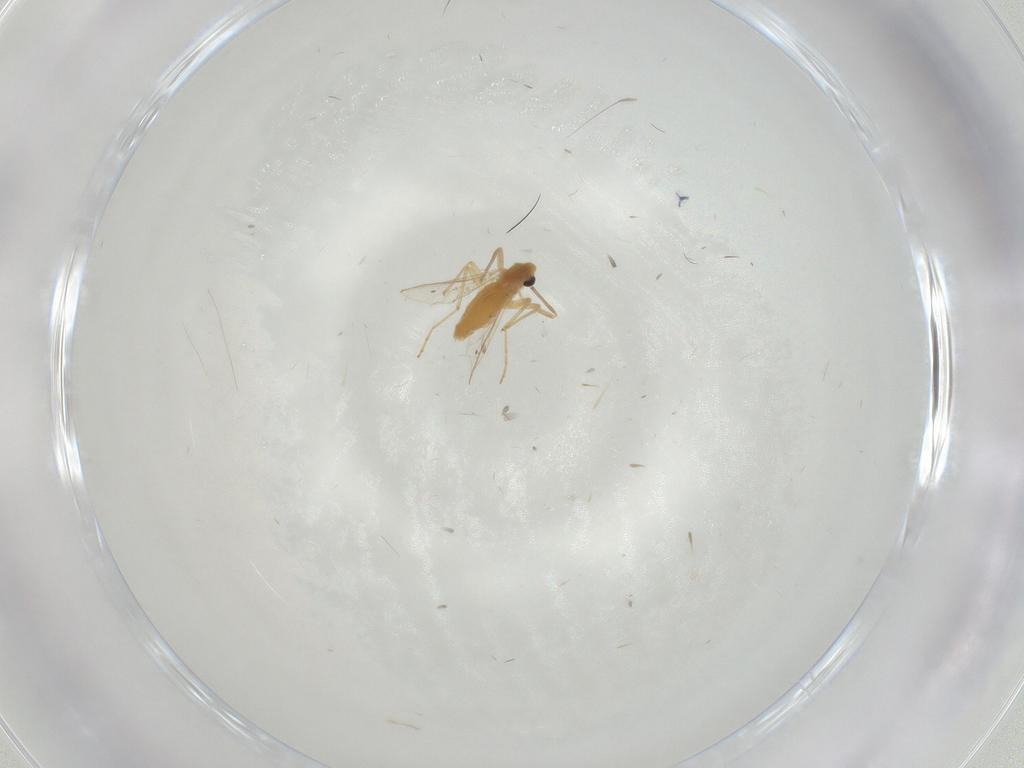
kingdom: Animalia
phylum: Arthropoda
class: Insecta
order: Diptera
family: Chironomidae
